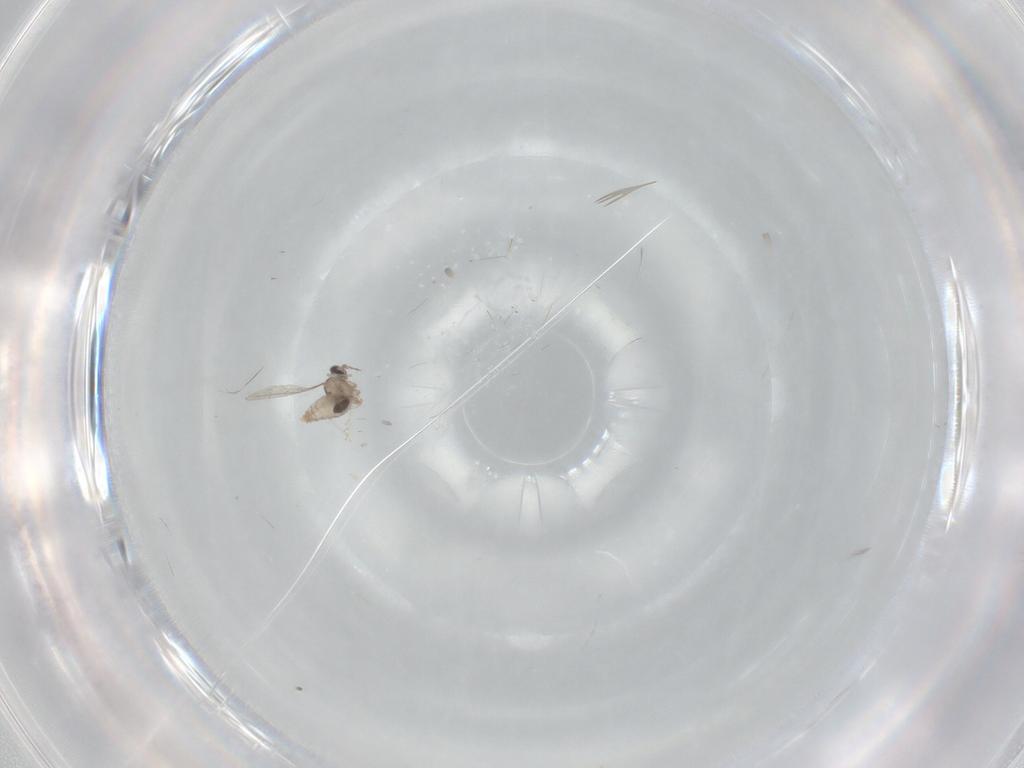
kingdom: Animalia
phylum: Arthropoda
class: Insecta
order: Diptera
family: Cecidomyiidae
